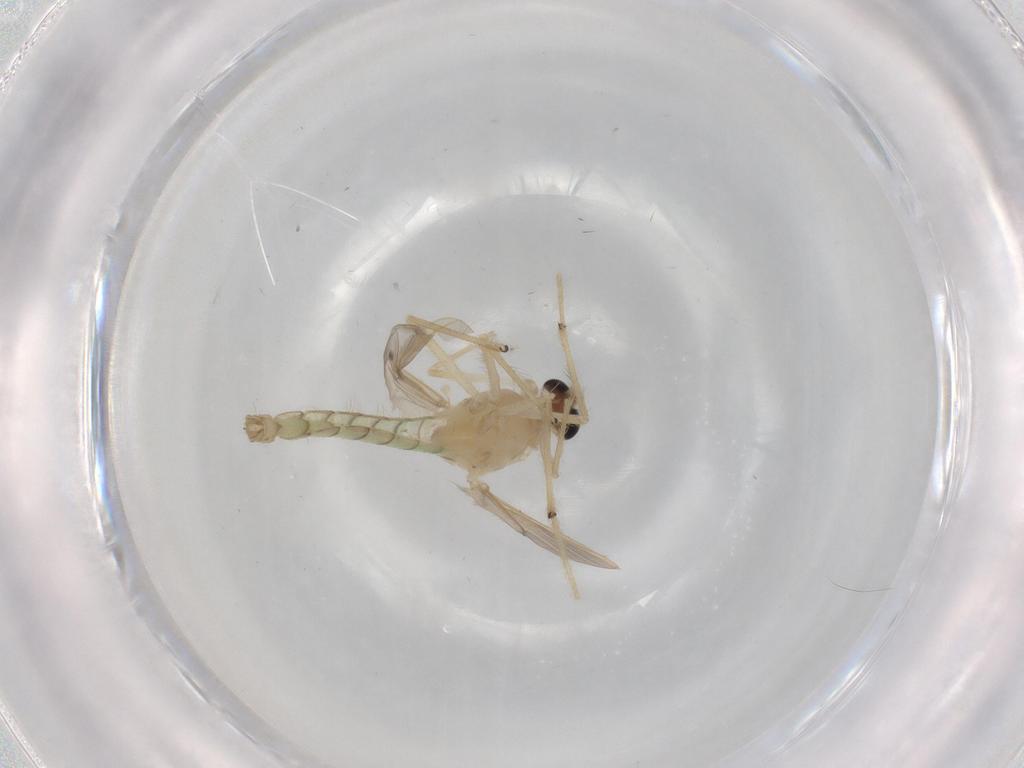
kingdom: Animalia
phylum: Arthropoda
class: Insecta
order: Diptera
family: Chironomidae
